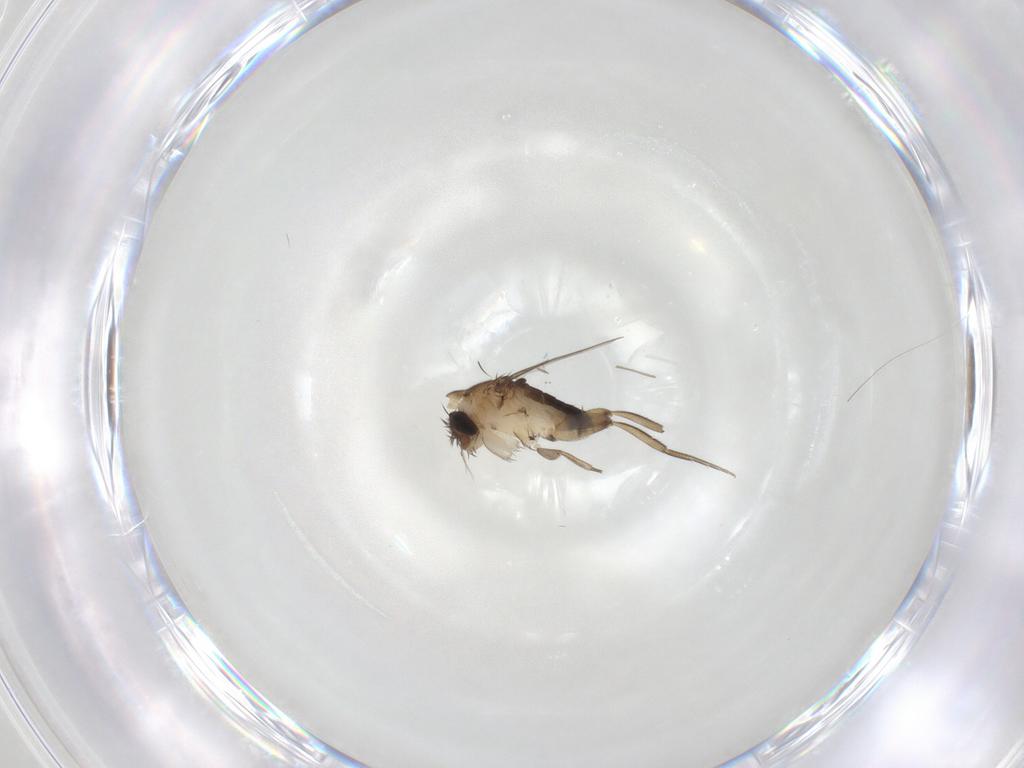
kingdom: Animalia
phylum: Arthropoda
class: Insecta
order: Diptera
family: Phoridae
